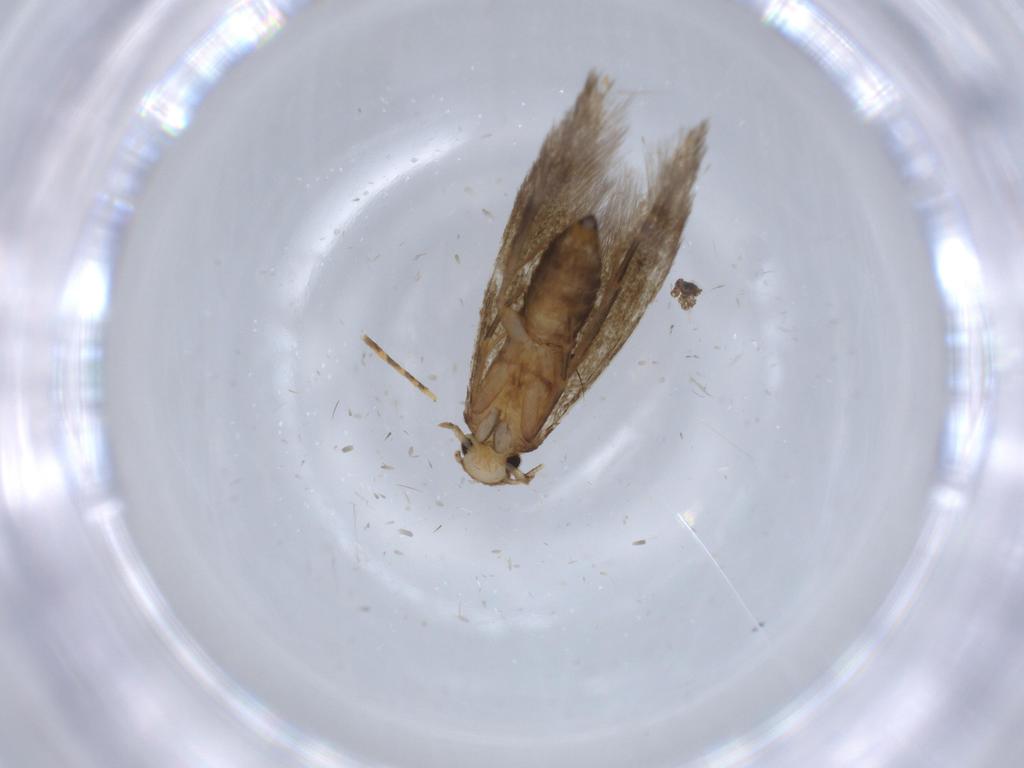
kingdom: Animalia
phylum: Arthropoda
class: Insecta
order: Lepidoptera
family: Tineidae
